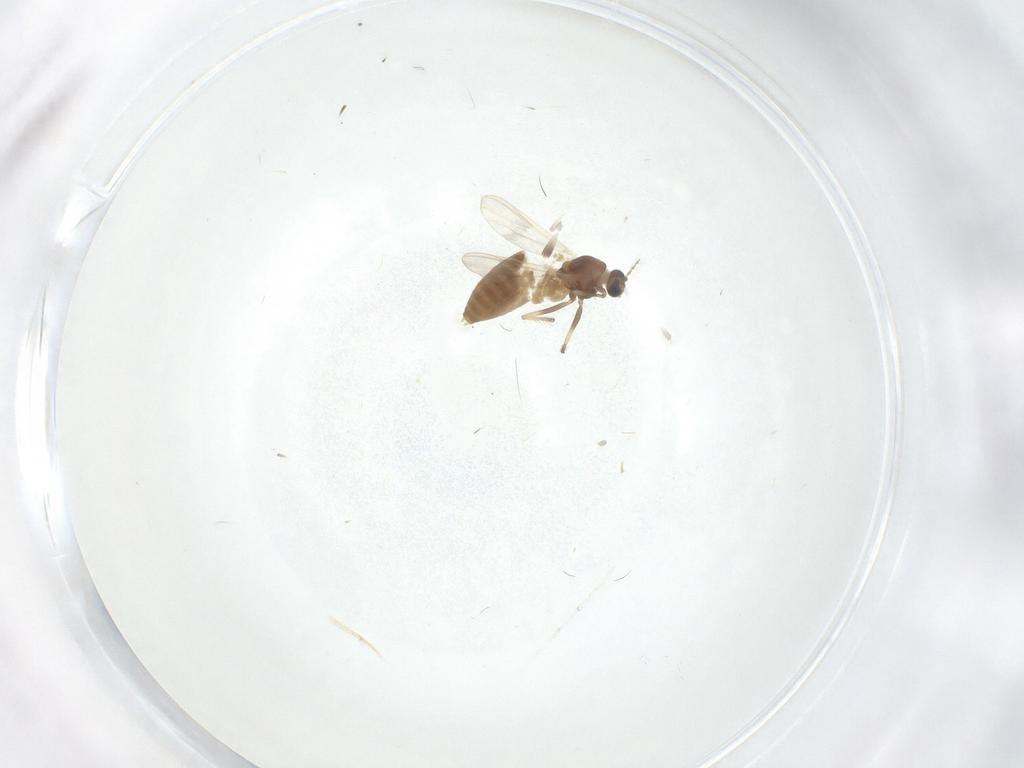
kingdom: Animalia
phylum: Arthropoda
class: Insecta
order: Diptera
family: Chironomidae
